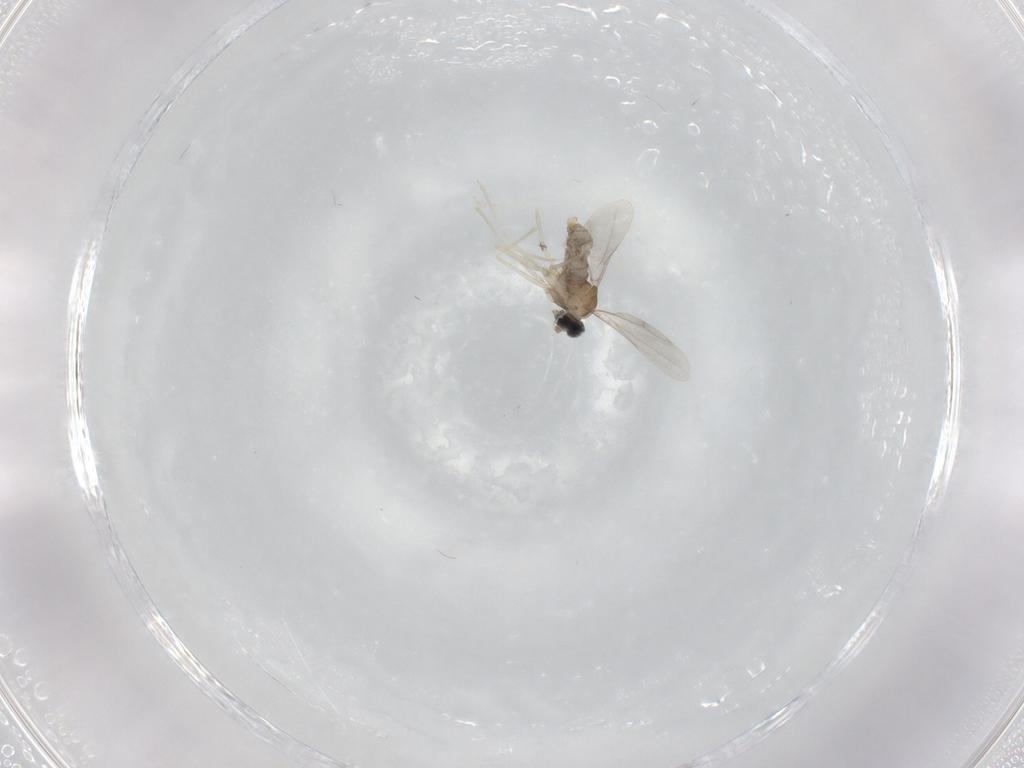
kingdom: Animalia
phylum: Arthropoda
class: Insecta
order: Diptera
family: Cecidomyiidae
